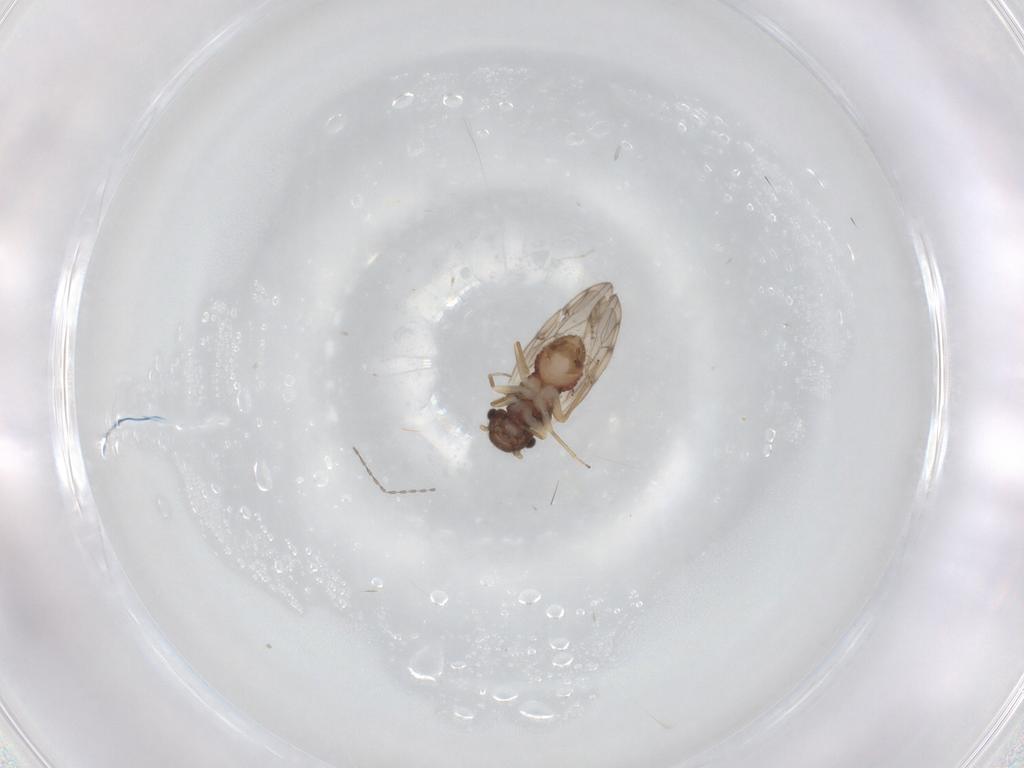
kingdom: Animalia
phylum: Arthropoda
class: Insecta
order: Psocodea
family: Peripsocidae
